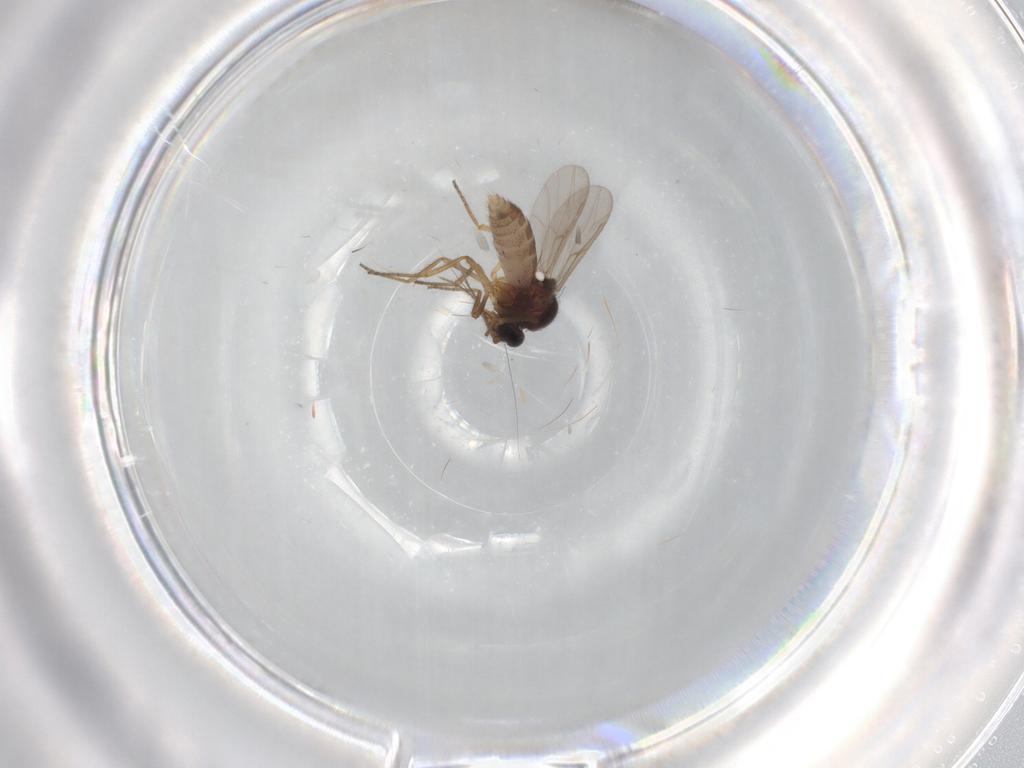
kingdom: Animalia
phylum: Arthropoda
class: Insecta
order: Diptera
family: Ceratopogonidae
